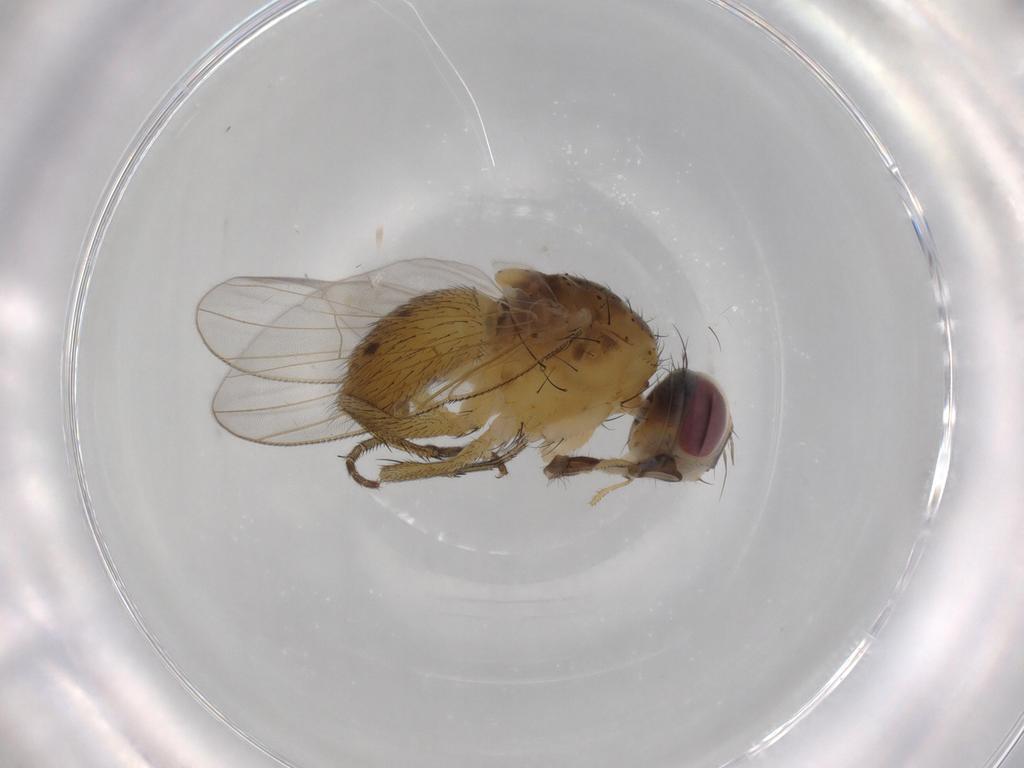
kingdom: Animalia
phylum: Arthropoda
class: Insecta
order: Diptera
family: Muscidae
